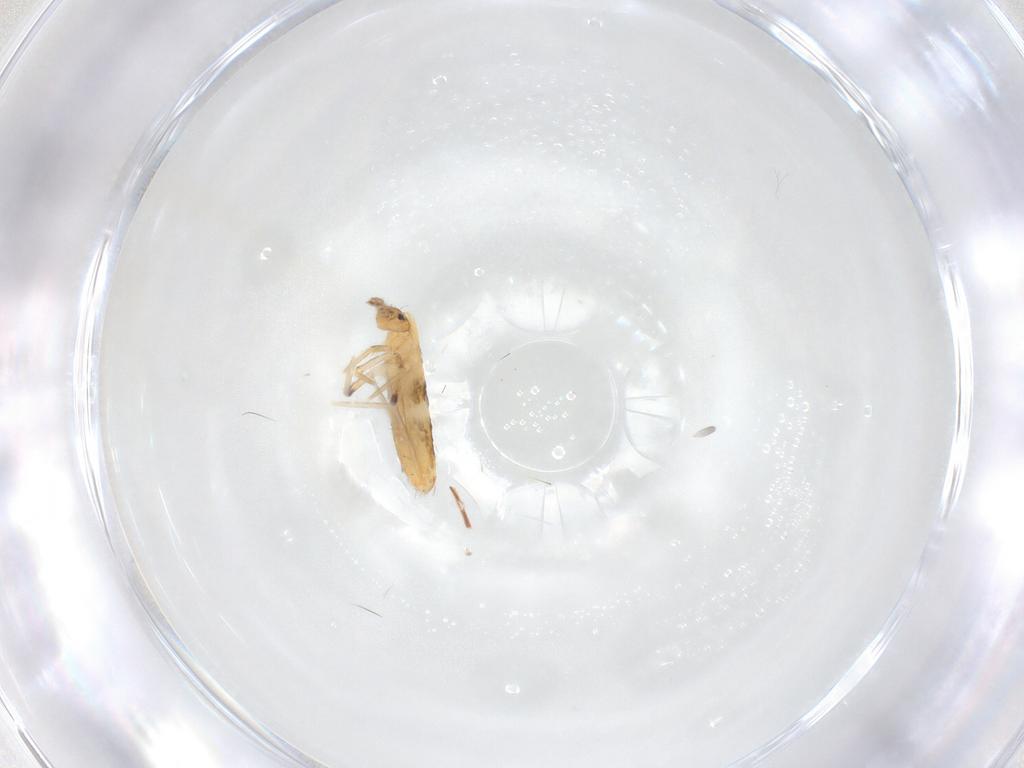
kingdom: Animalia
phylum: Arthropoda
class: Collembola
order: Entomobryomorpha
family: Entomobryidae
